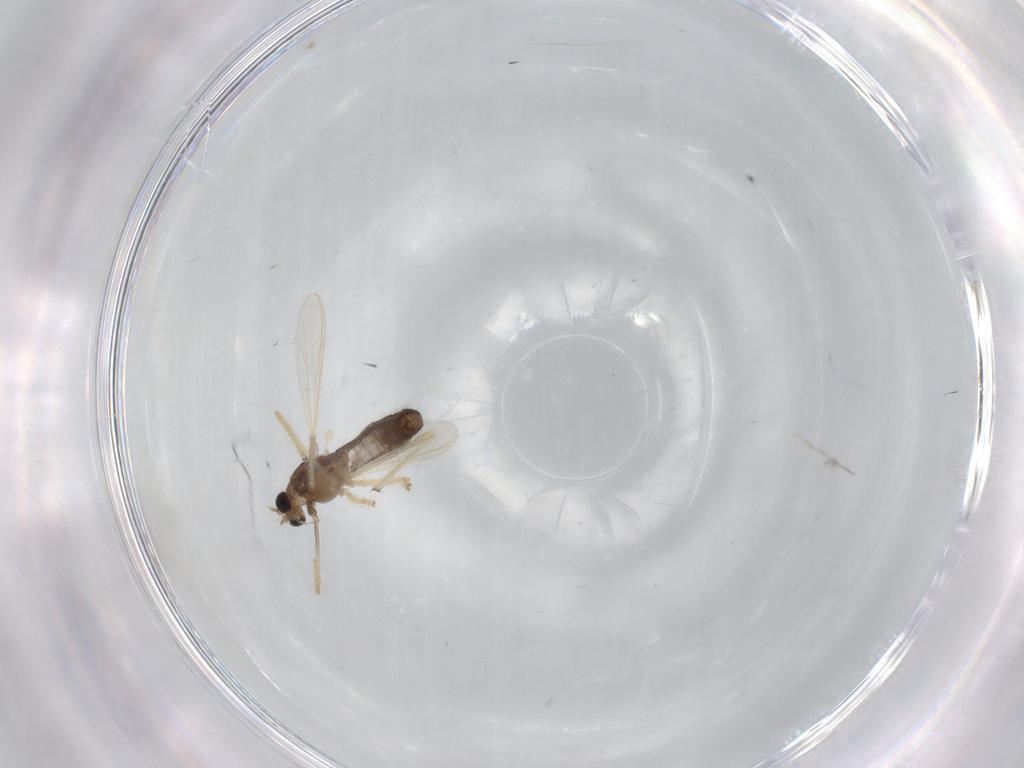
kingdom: Animalia
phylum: Arthropoda
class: Insecta
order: Diptera
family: Chironomidae
